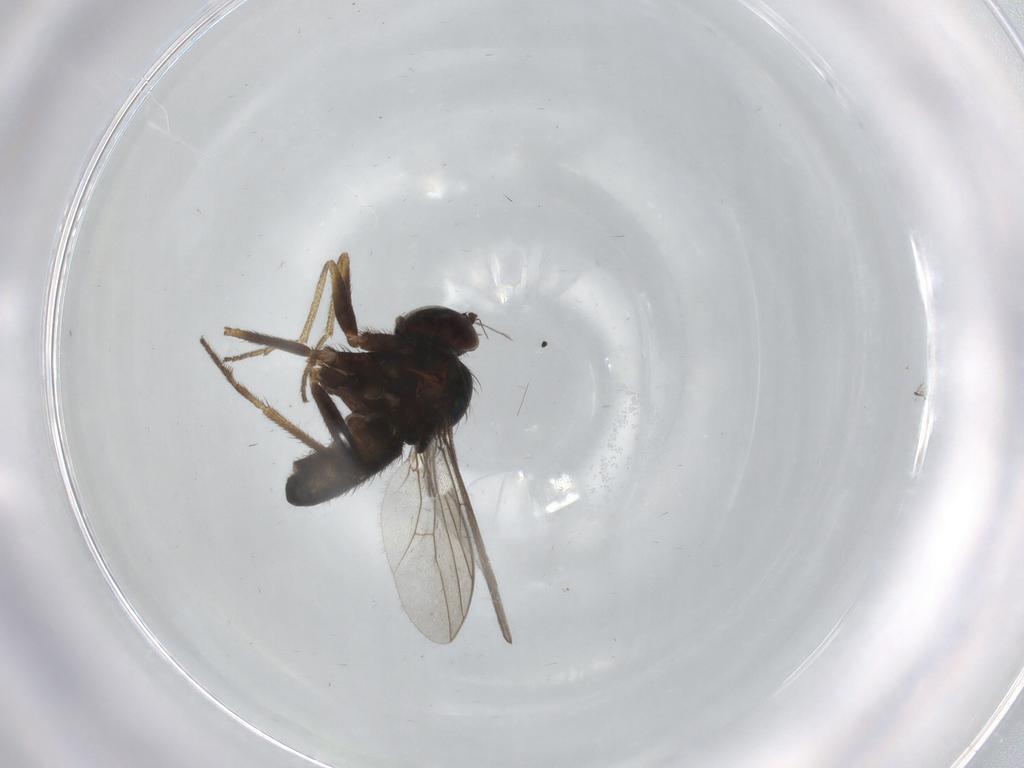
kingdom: Animalia
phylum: Arthropoda
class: Insecta
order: Diptera
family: Dolichopodidae
